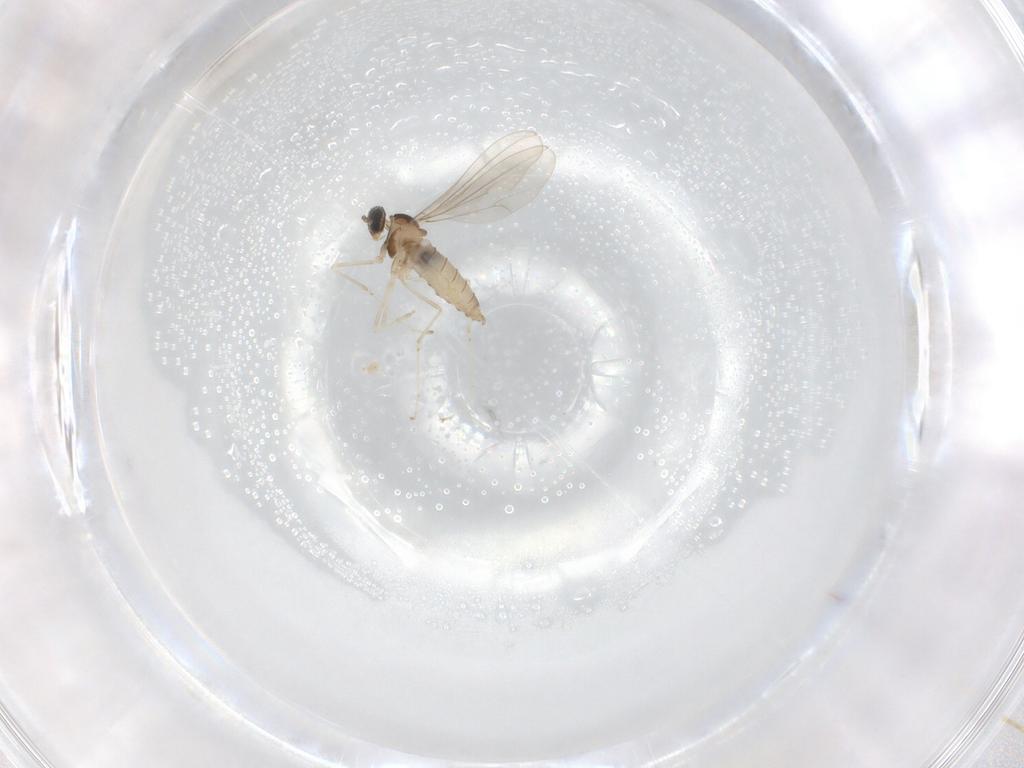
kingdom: Animalia
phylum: Arthropoda
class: Insecta
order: Diptera
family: Cecidomyiidae
